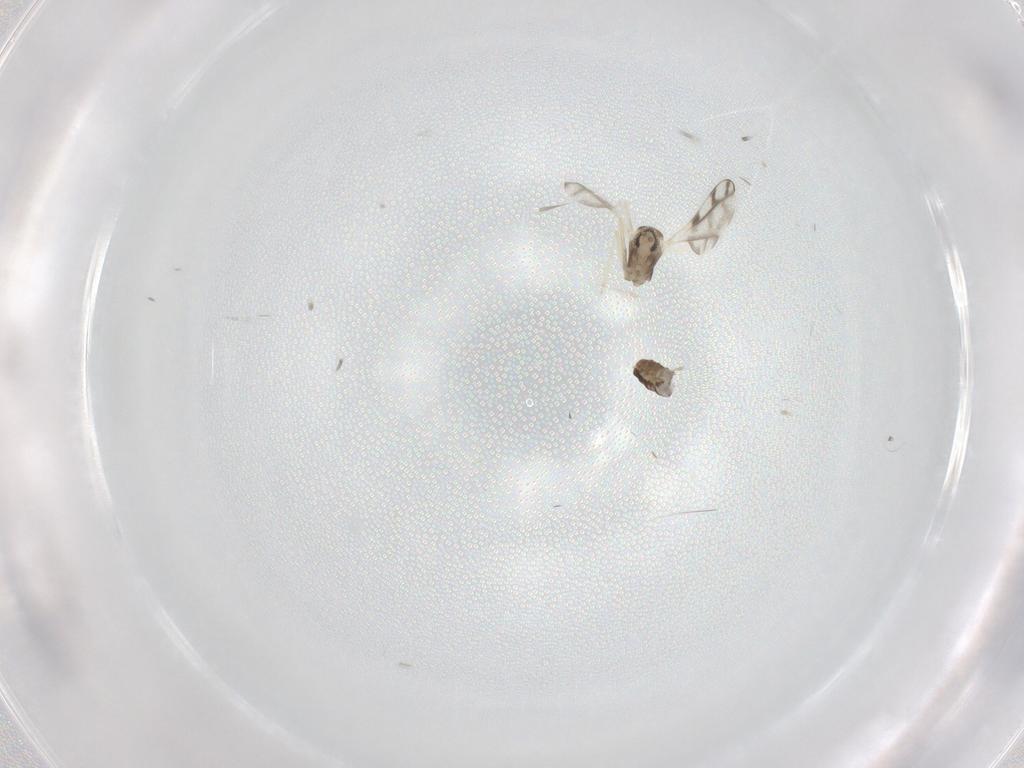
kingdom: Animalia
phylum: Arthropoda
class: Insecta
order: Diptera
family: Cecidomyiidae
